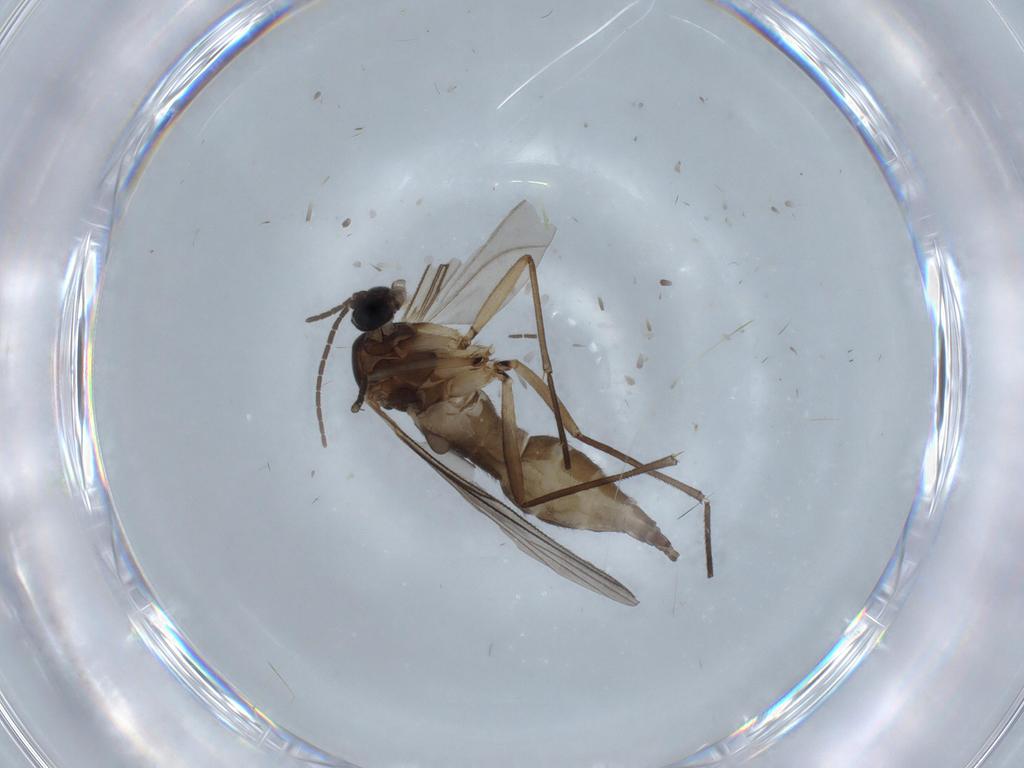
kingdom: Animalia
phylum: Arthropoda
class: Insecta
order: Diptera
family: Sciaridae
